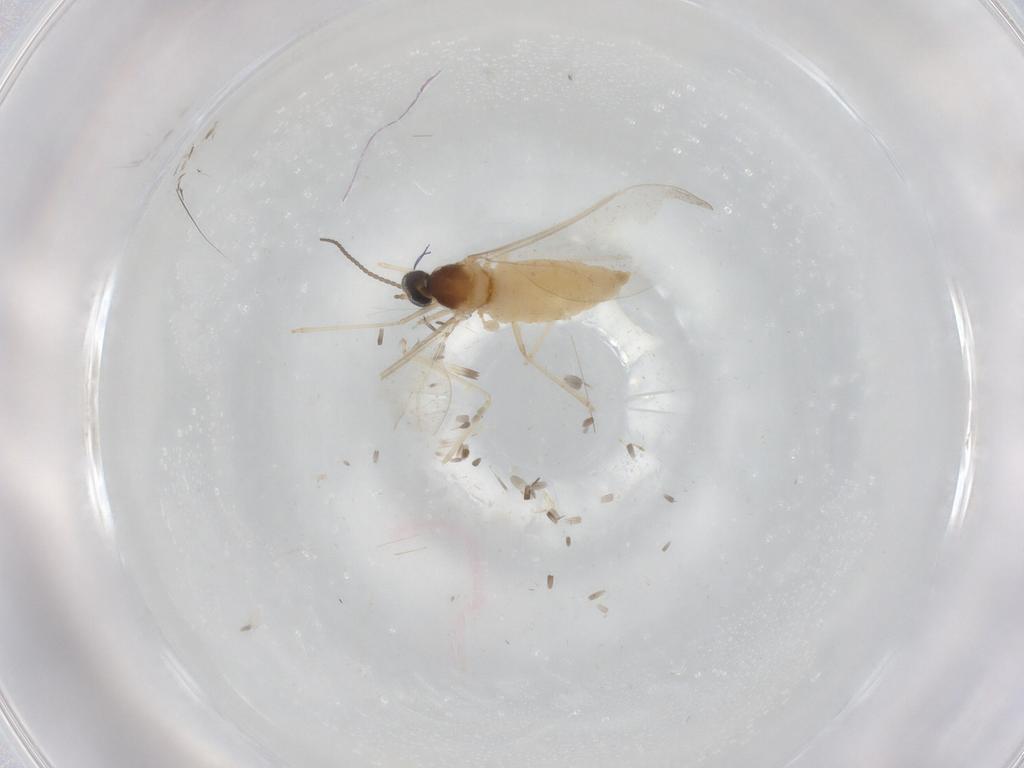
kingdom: Animalia
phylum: Arthropoda
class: Insecta
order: Diptera
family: Cecidomyiidae
